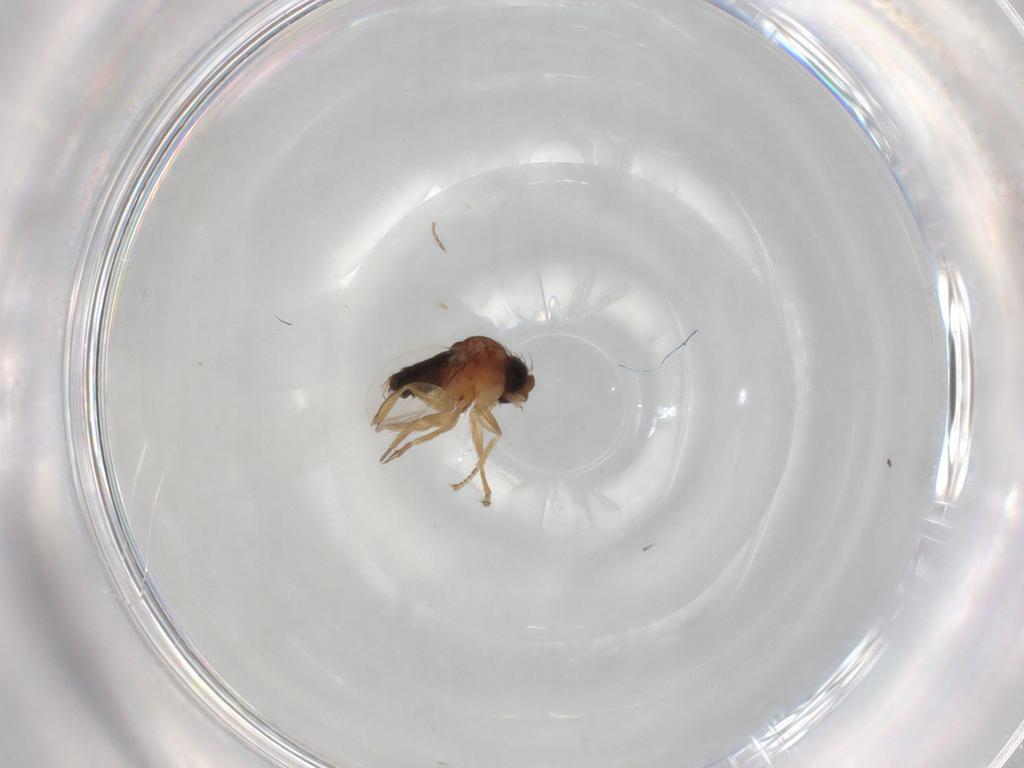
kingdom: Animalia
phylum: Arthropoda
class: Insecta
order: Diptera
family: Phoridae
